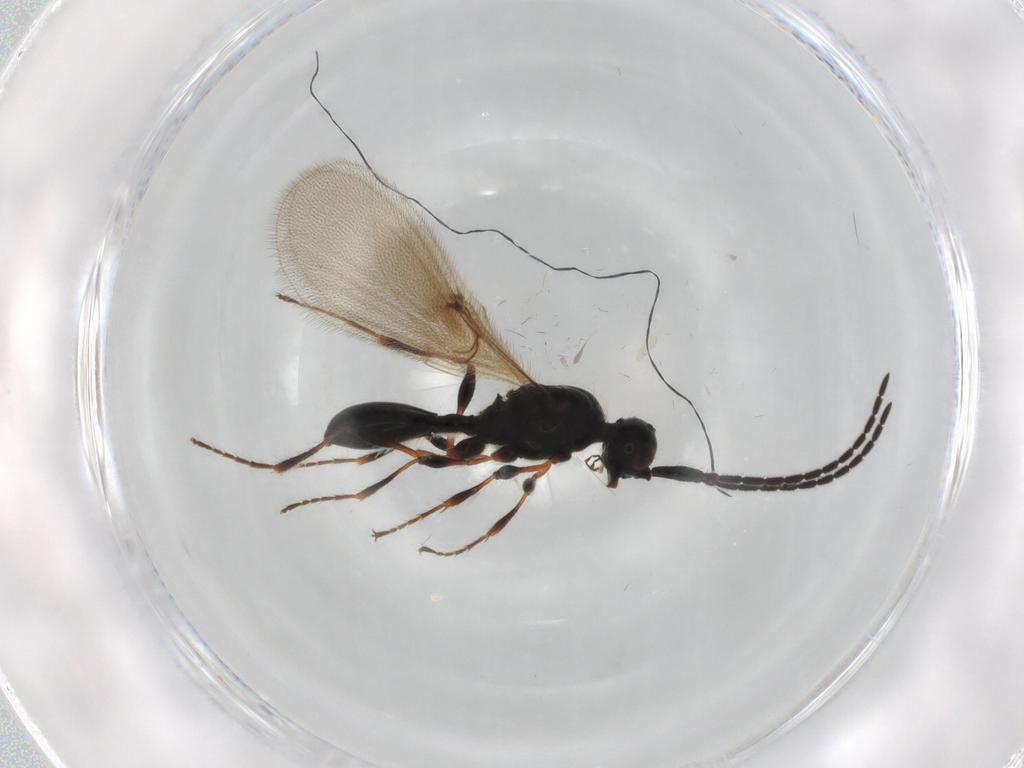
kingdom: Animalia
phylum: Arthropoda
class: Insecta
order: Hymenoptera
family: Diapriidae
